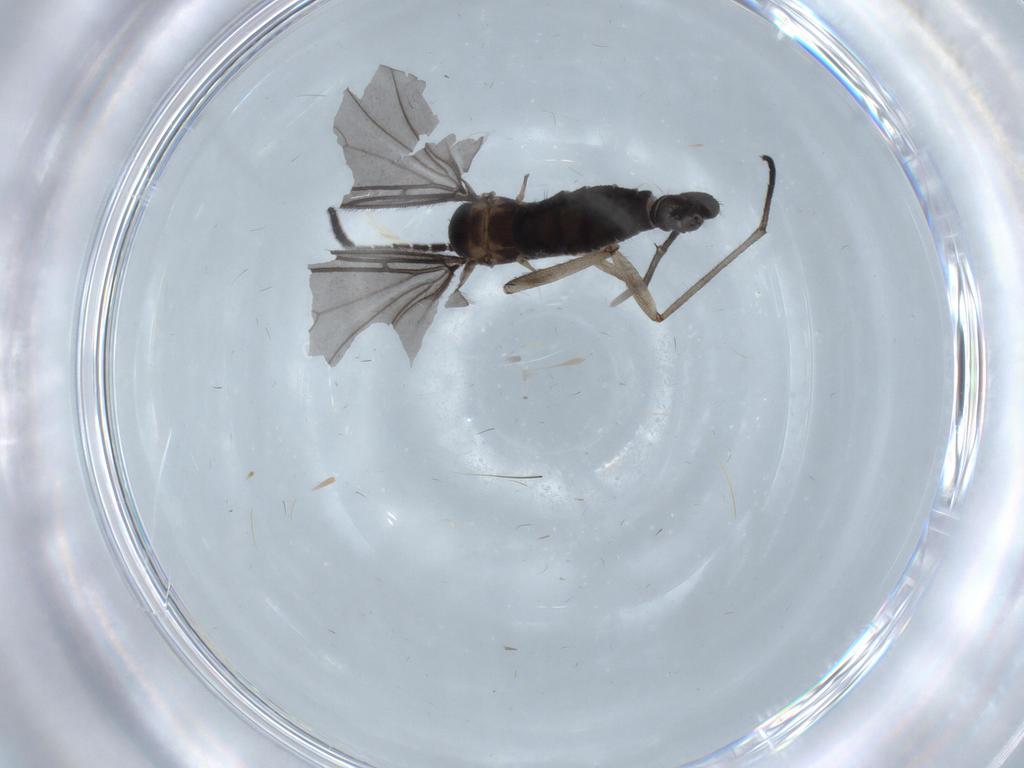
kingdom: Animalia
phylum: Arthropoda
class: Insecta
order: Diptera
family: Sciaridae
